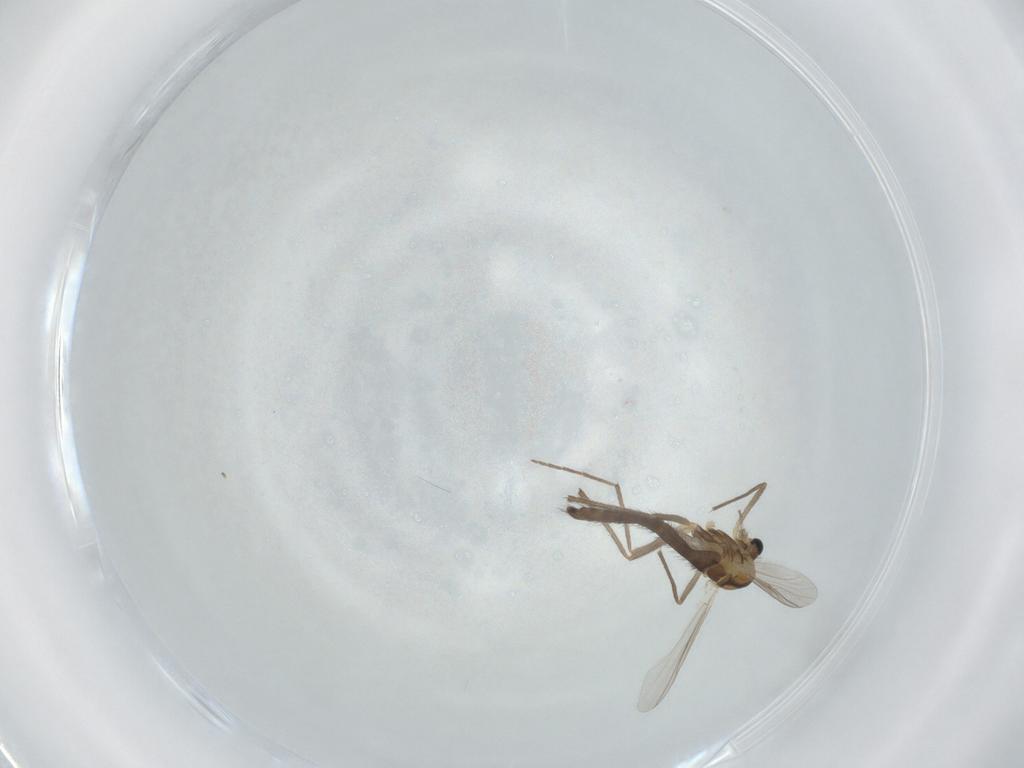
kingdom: Animalia
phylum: Arthropoda
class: Insecta
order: Diptera
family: Chironomidae
